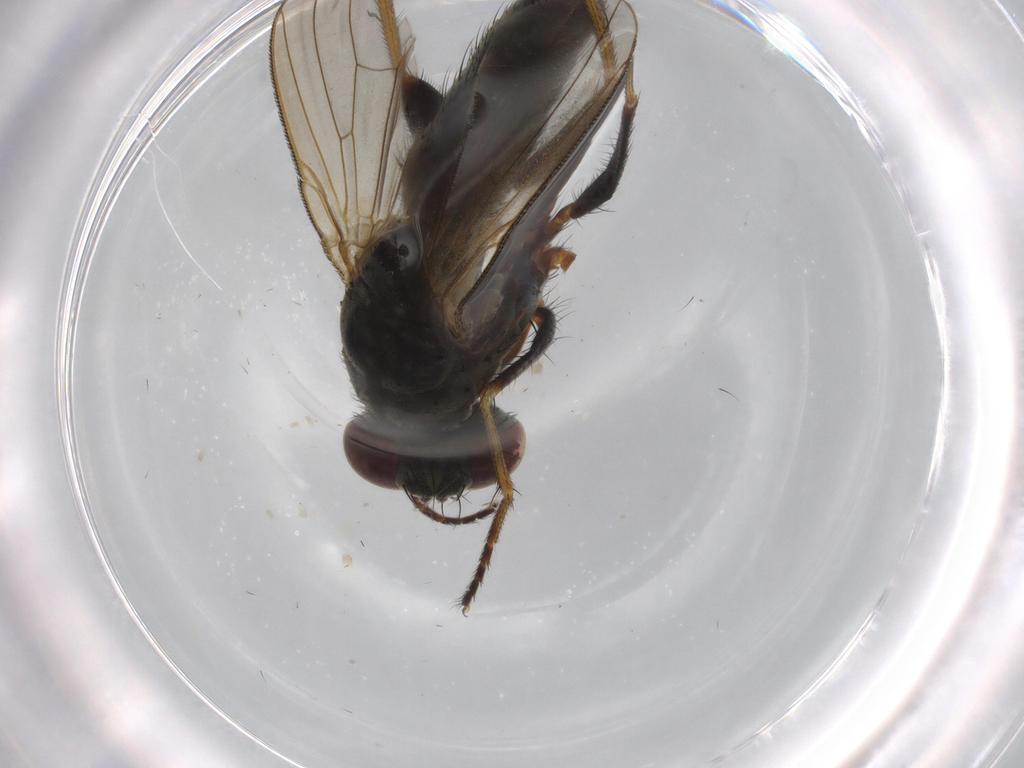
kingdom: Animalia
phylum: Arthropoda
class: Insecta
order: Diptera
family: Muscidae
